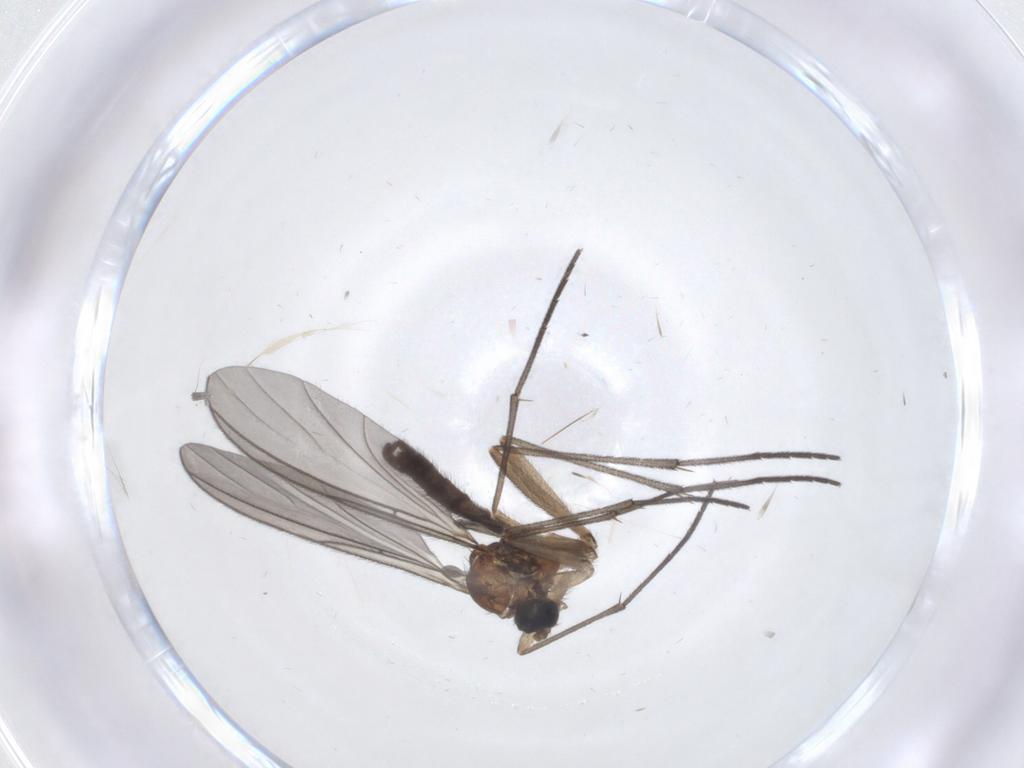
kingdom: Animalia
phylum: Arthropoda
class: Insecta
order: Diptera
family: Sciaridae
